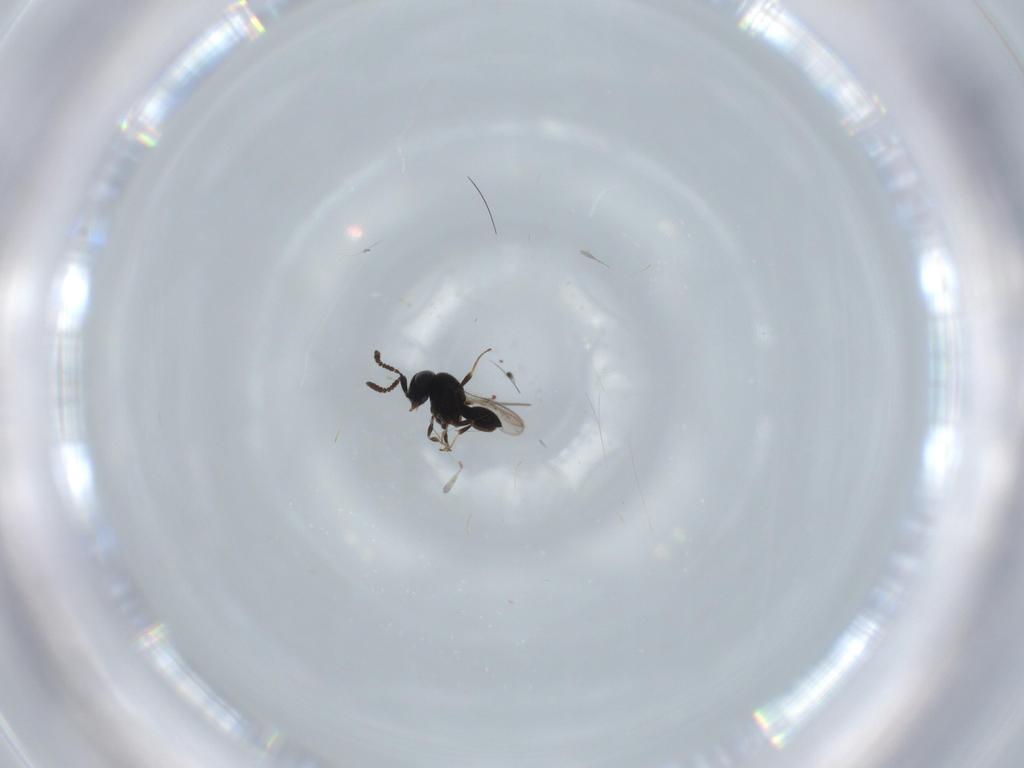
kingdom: Animalia
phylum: Arthropoda
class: Insecta
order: Hymenoptera
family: Scelionidae
